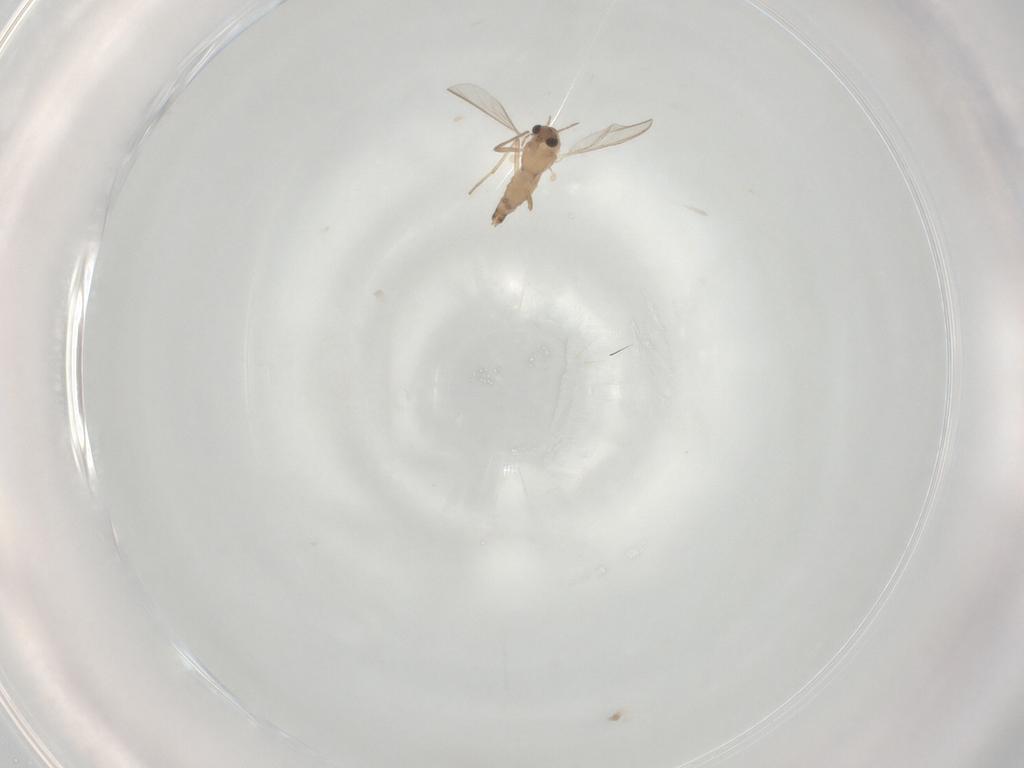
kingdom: Animalia
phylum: Arthropoda
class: Insecta
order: Diptera
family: Chironomidae
